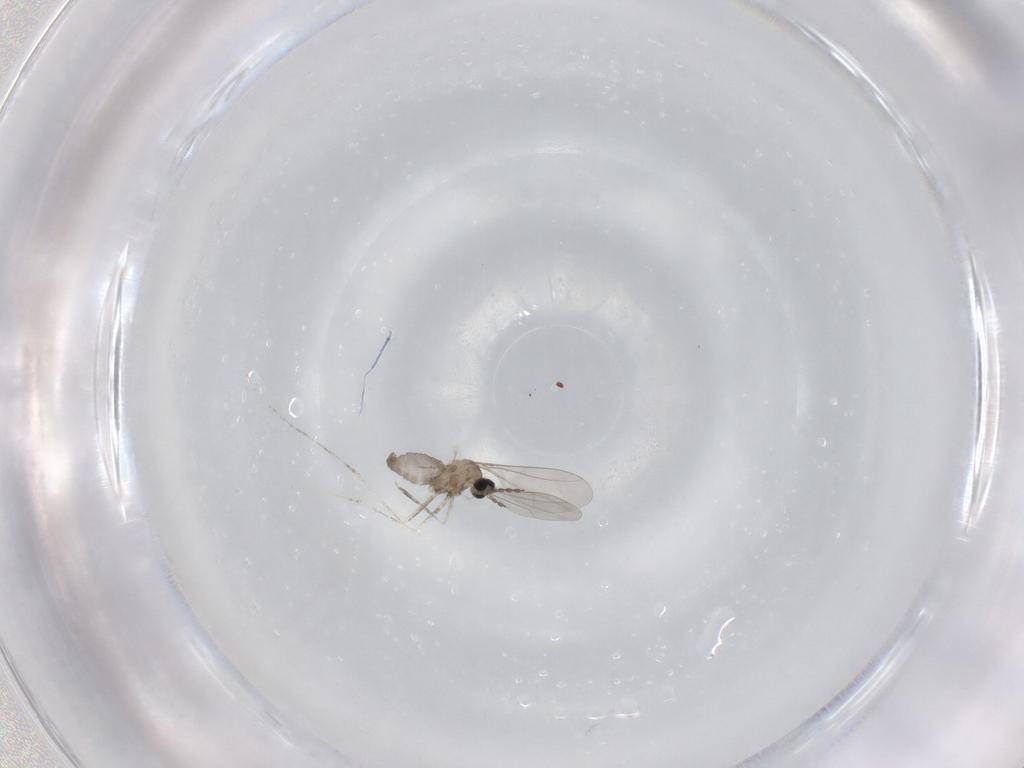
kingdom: Animalia
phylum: Arthropoda
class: Insecta
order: Diptera
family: Cecidomyiidae
